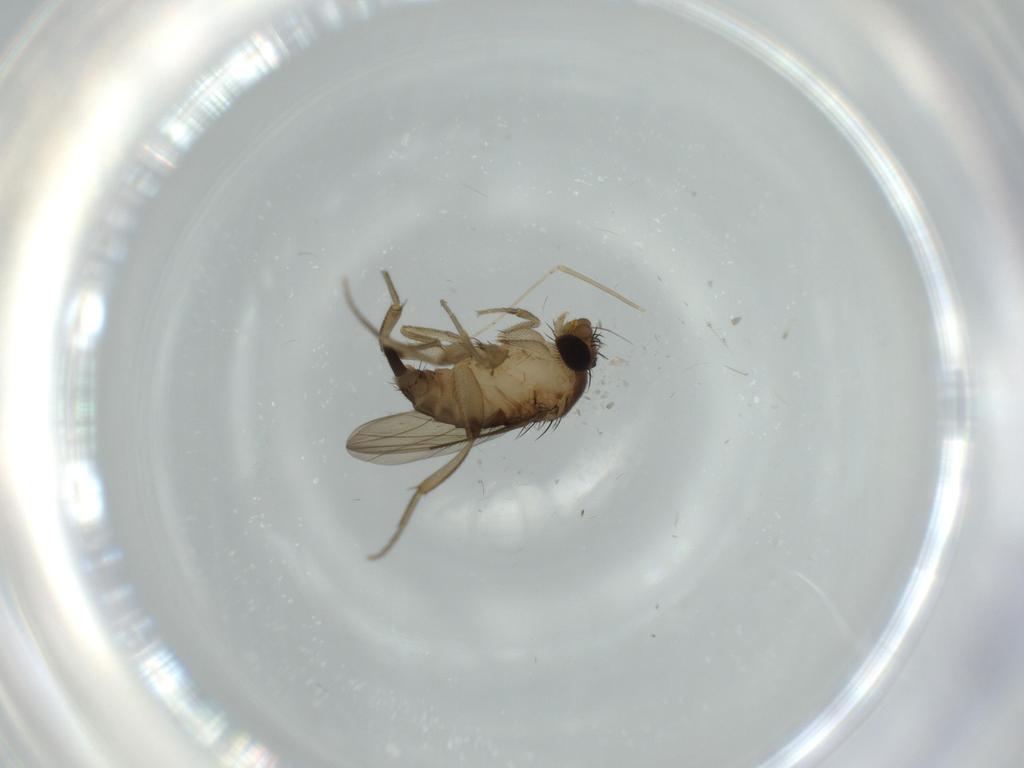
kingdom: Animalia
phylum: Arthropoda
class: Insecta
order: Diptera
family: Cecidomyiidae
